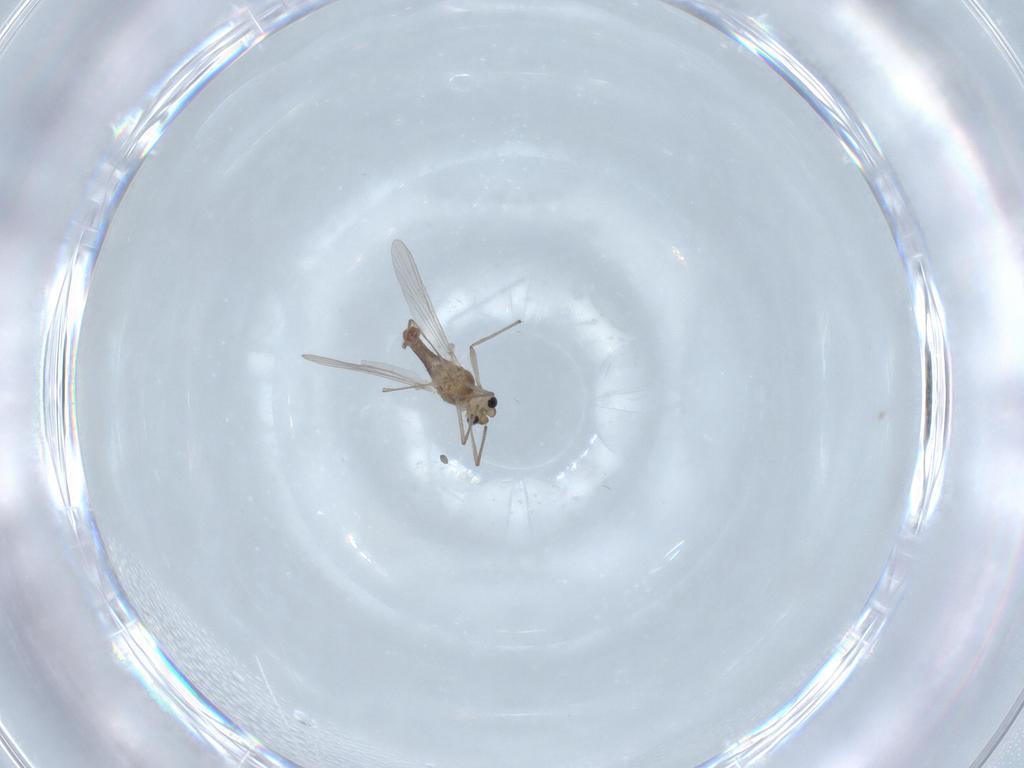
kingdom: Animalia
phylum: Arthropoda
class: Insecta
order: Diptera
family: Chironomidae
